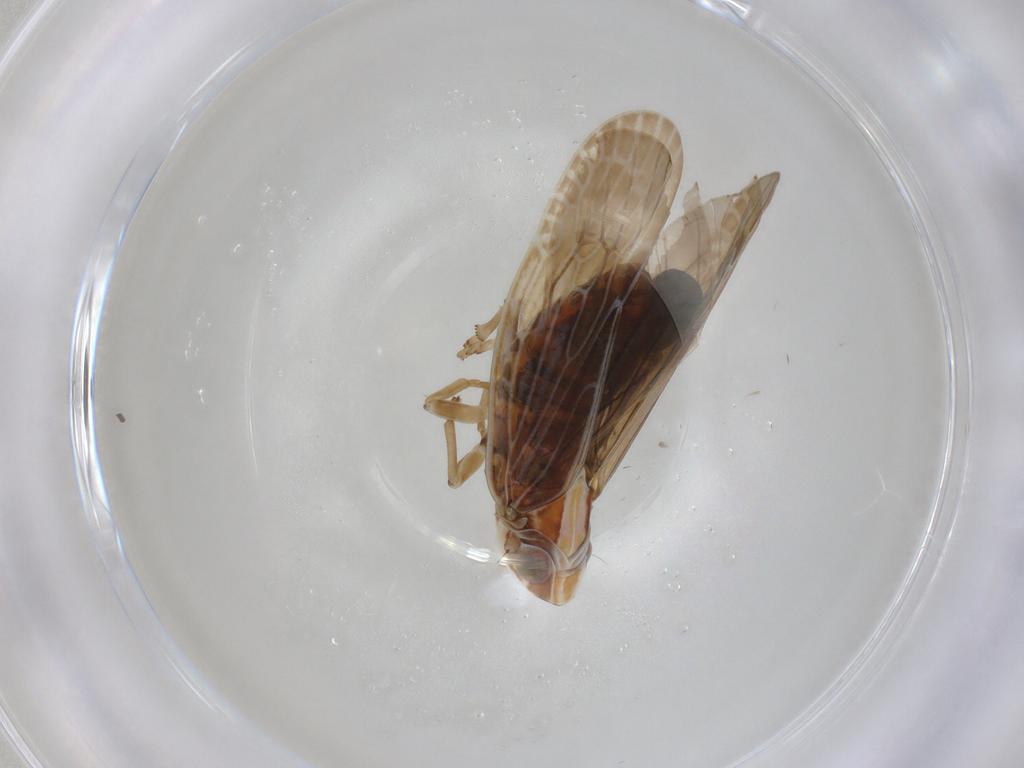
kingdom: Animalia
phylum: Arthropoda
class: Insecta
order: Hemiptera
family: Achilidae
